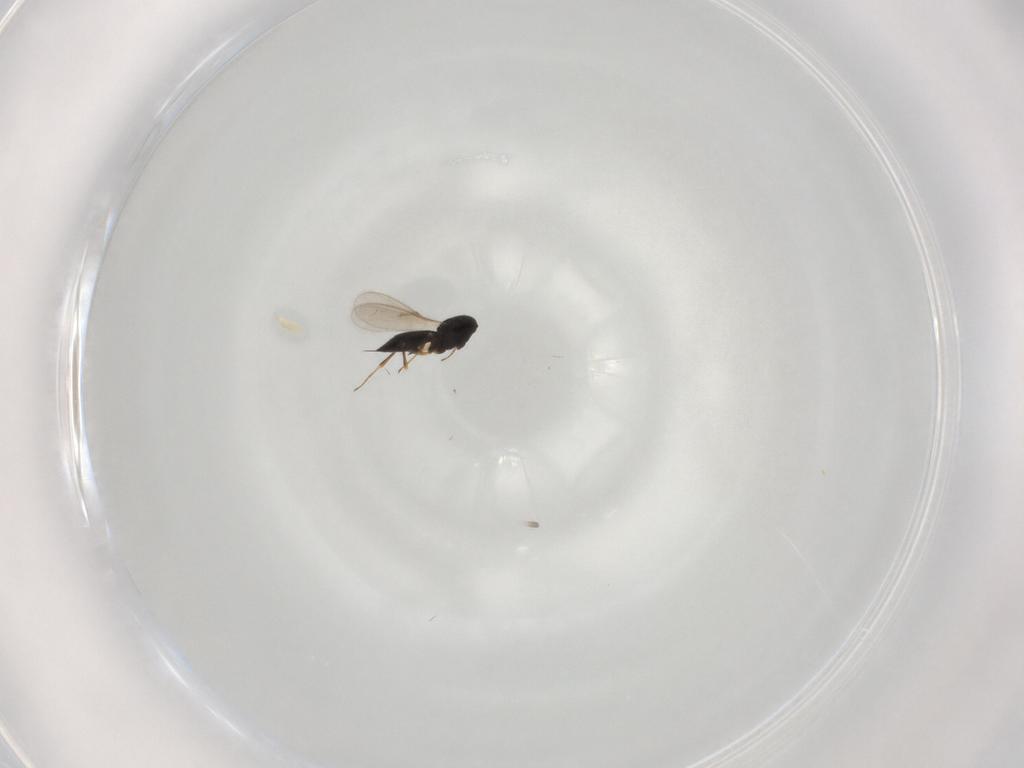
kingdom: Animalia
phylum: Arthropoda
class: Insecta
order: Hymenoptera
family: Scelionidae
